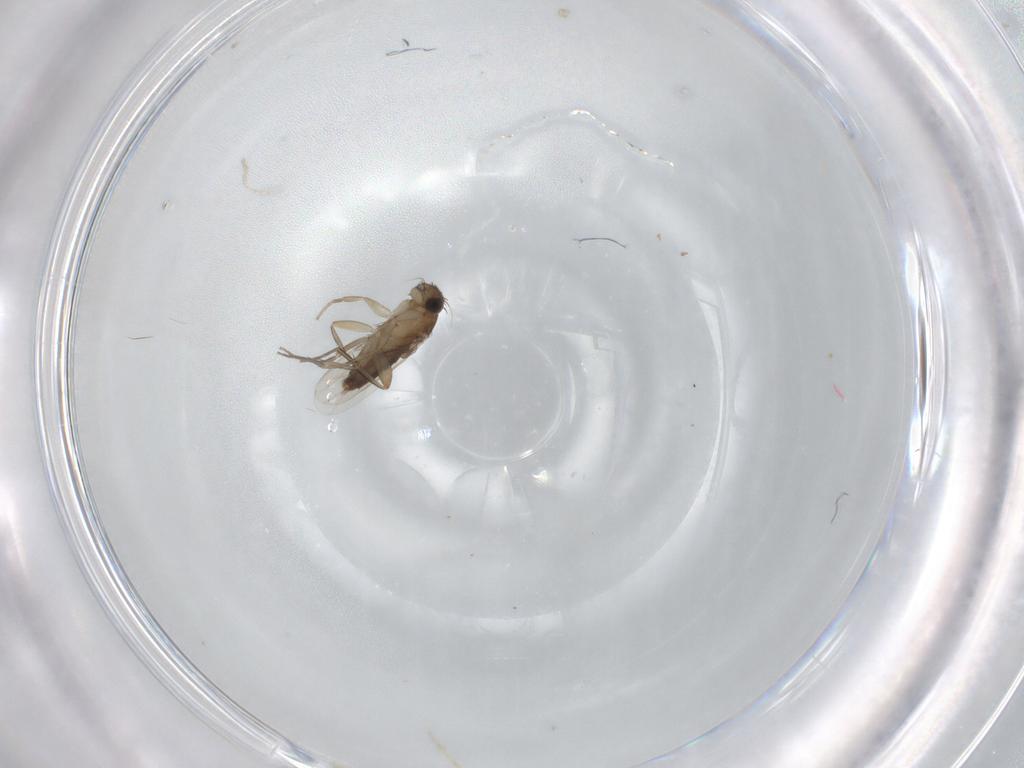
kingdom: Animalia
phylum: Arthropoda
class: Insecta
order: Diptera
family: Phoridae
